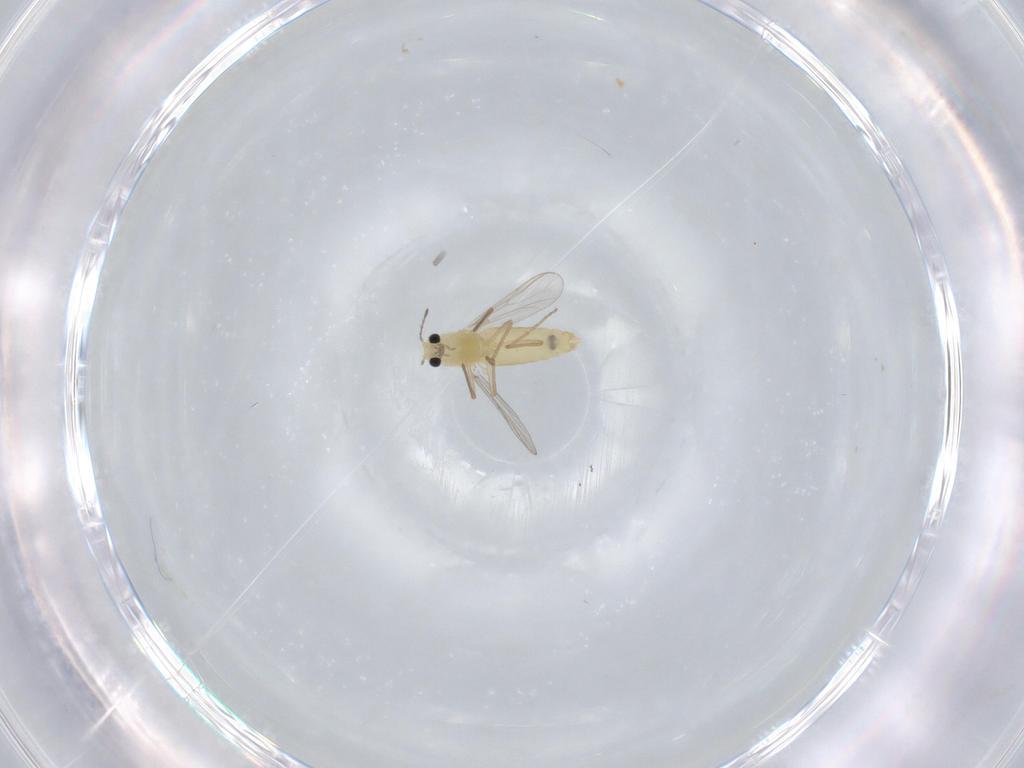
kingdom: Animalia
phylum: Arthropoda
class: Insecta
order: Diptera
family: Chironomidae
